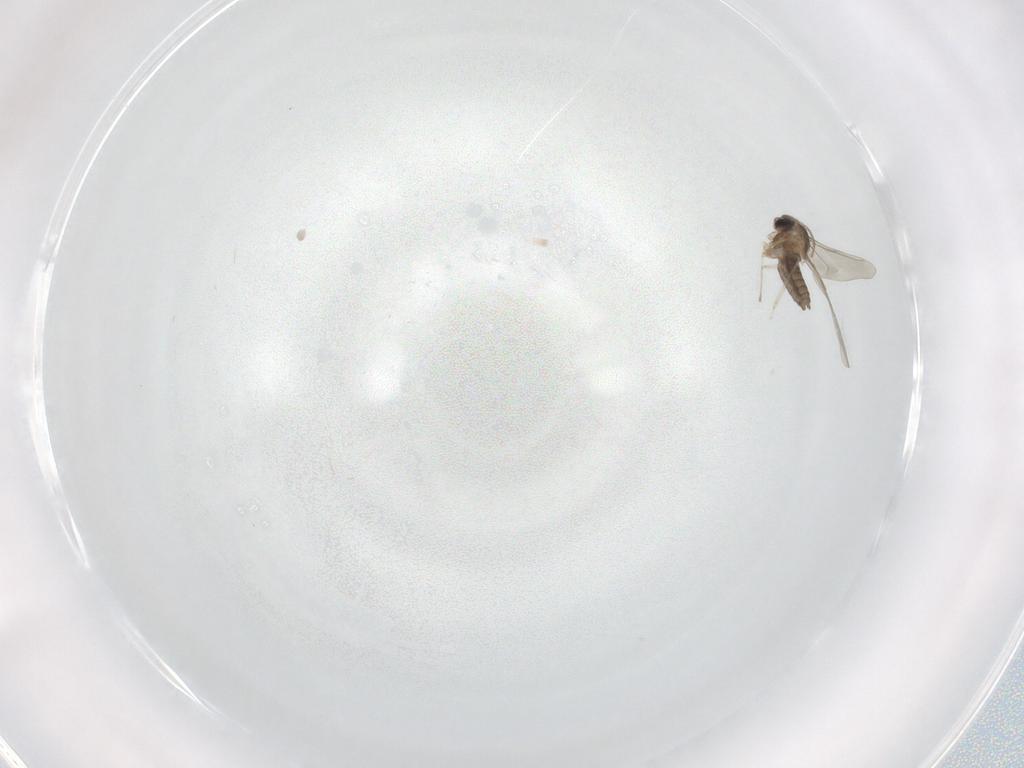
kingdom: Animalia
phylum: Arthropoda
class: Insecta
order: Diptera
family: Cecidomyiidae
